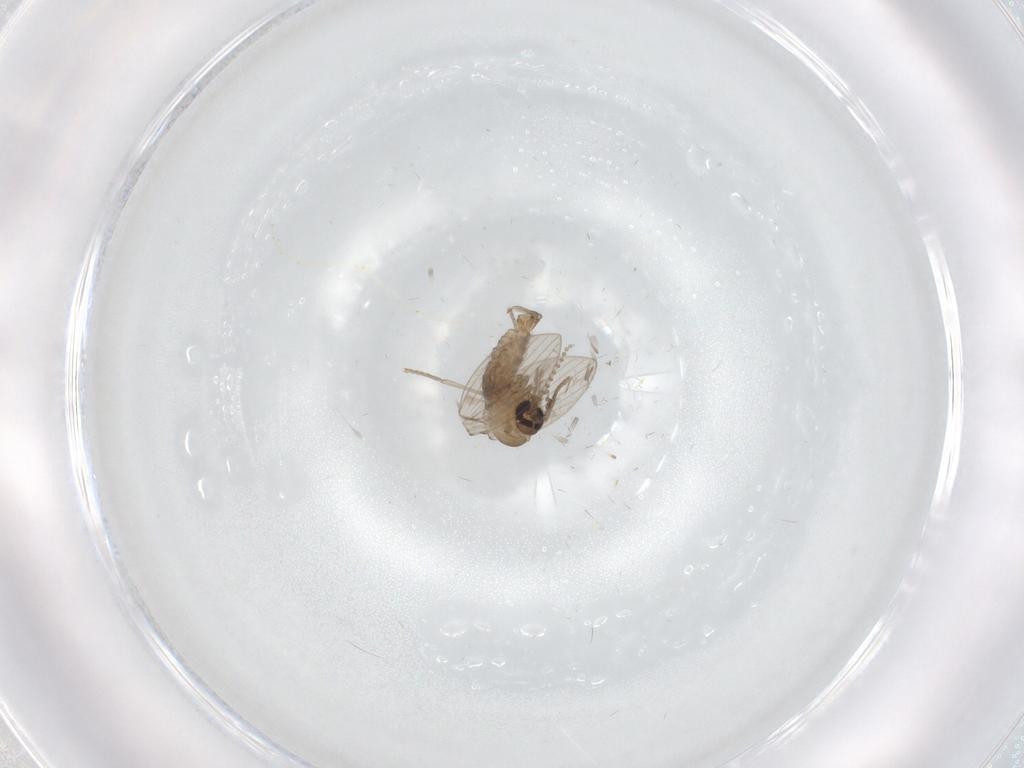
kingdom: Animalia
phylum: Arthropoda
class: Insecta
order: Diptera
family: Psychodidae
